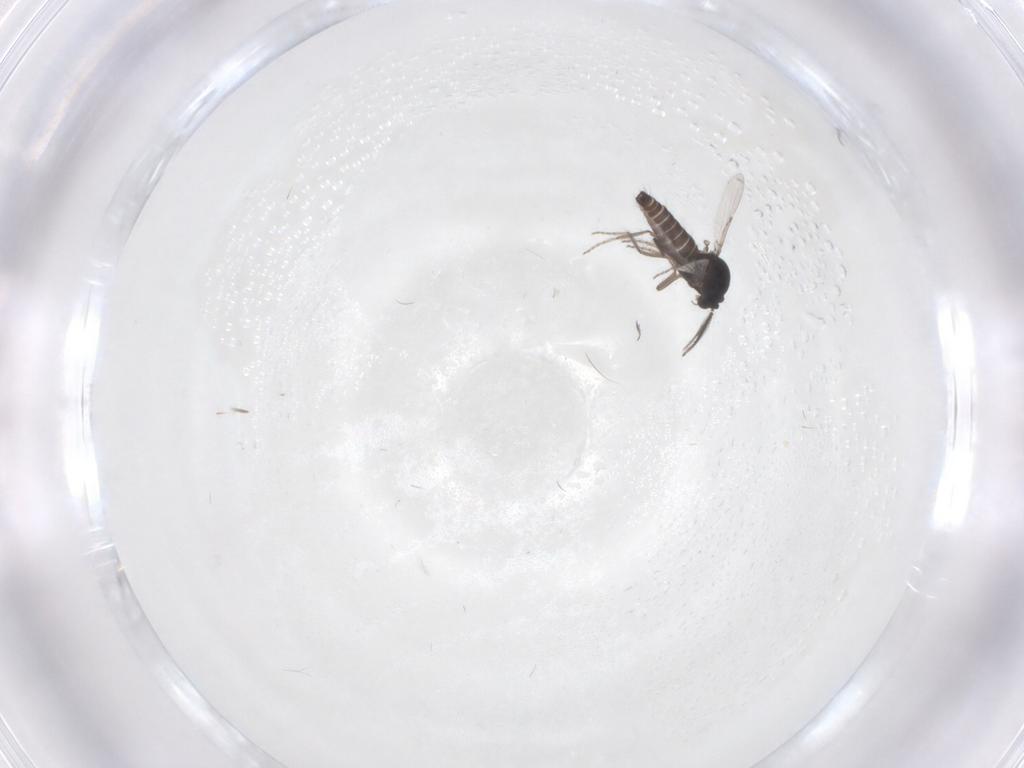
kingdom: Animalia
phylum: Arthropoda
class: Insecta
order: Diptera
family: Ceratopogonidae
